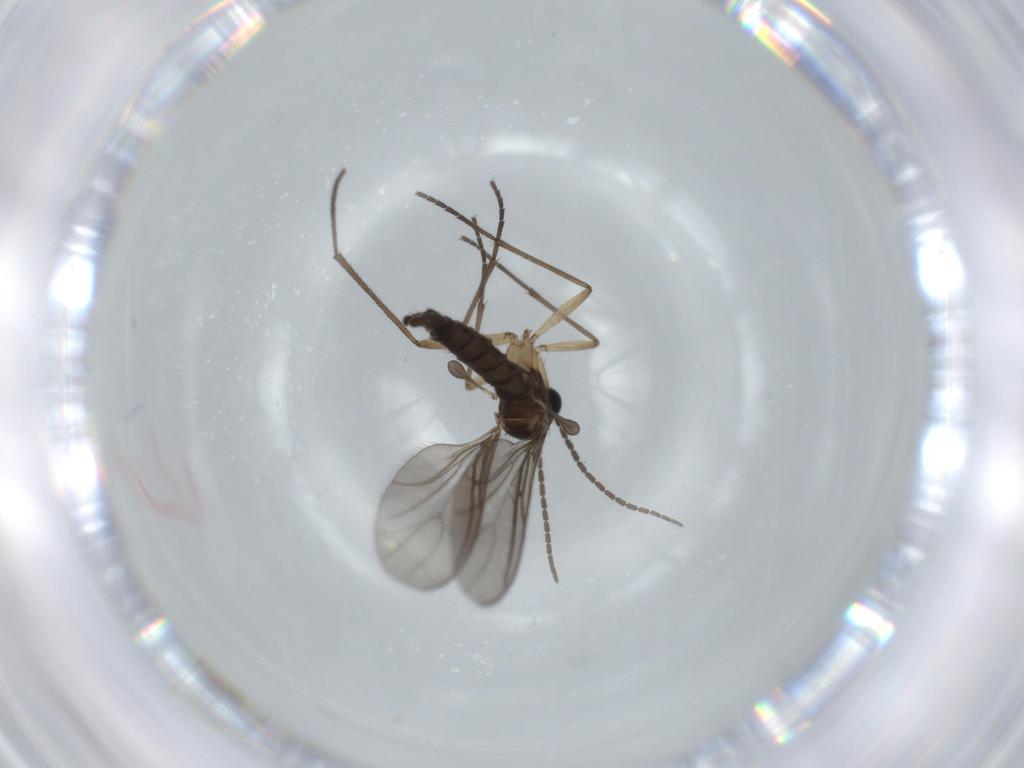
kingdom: Animalia
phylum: Arthropoda
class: Insecta
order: Diptera
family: Sciaridae
